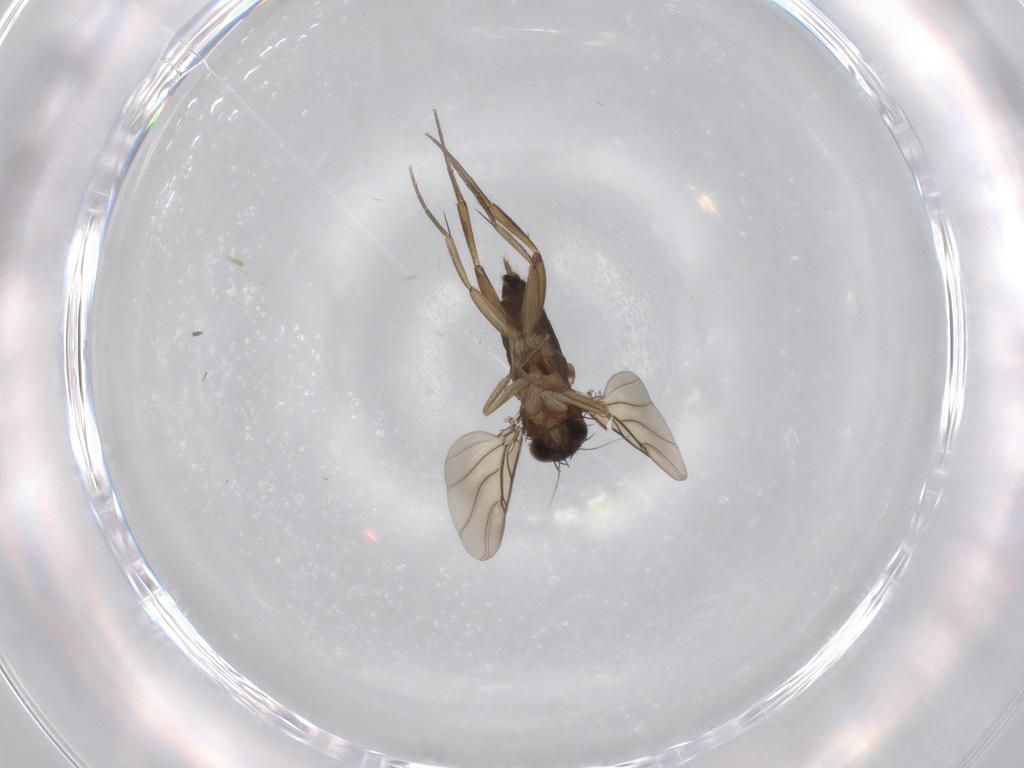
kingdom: Animalia
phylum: Arthropoda
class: Insecta
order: Diptera
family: Phoridae
